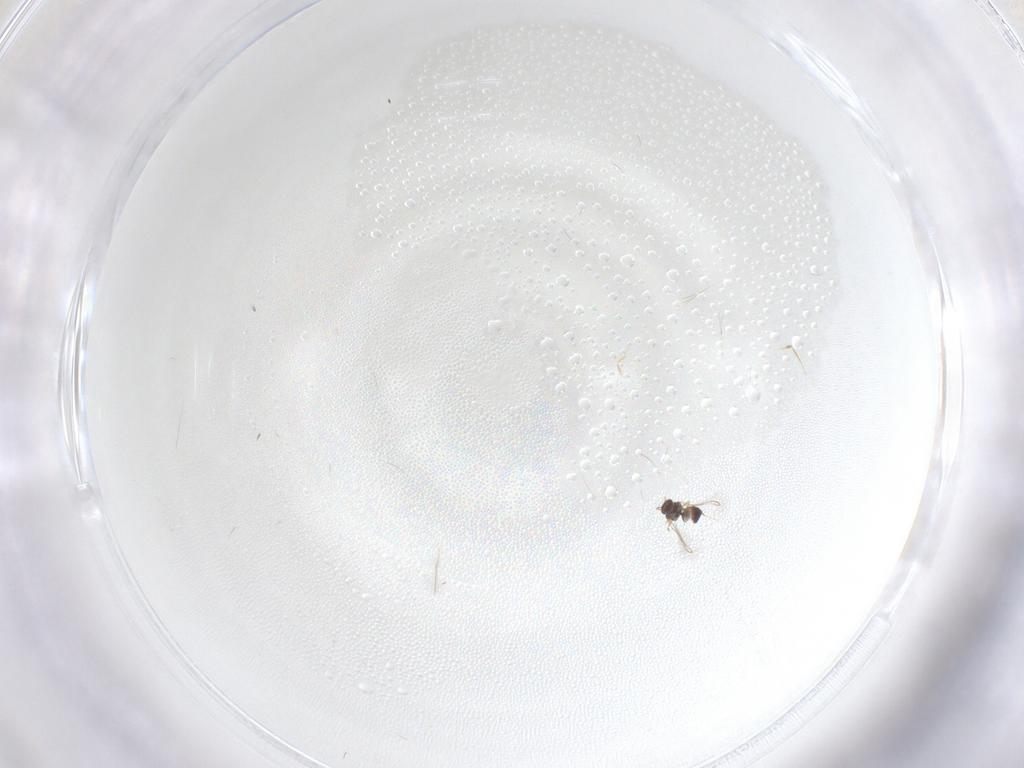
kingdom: Animalia
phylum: Arthropoda
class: Insecta
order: Hymenoptera
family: Mymaridae
